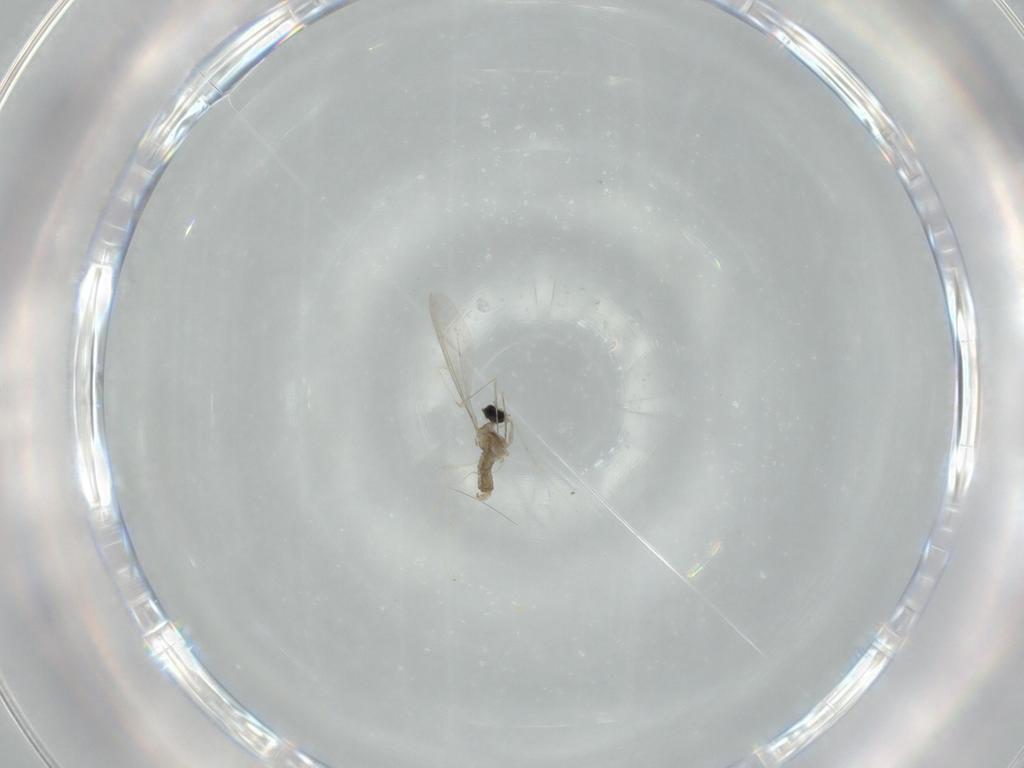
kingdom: Animalia
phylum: Arthropoda
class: Insecta
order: Diptera
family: Cecidomyiidae
